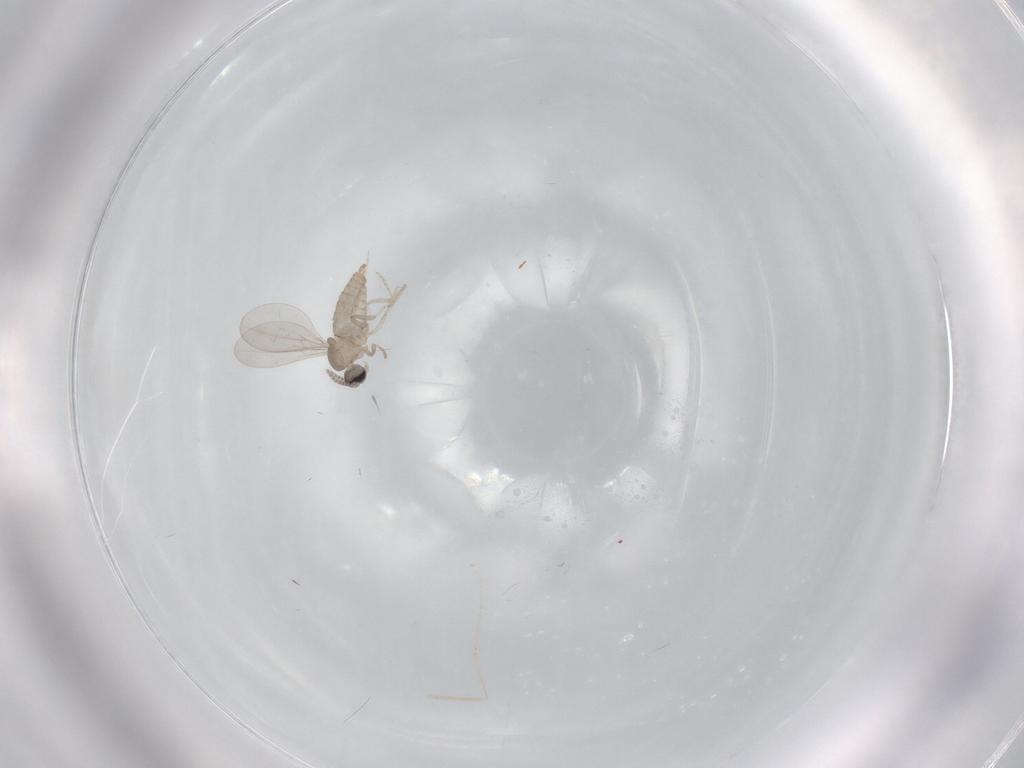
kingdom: Animalia
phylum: Arthropoda
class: Insecta
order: Diptera
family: Cecidomyiidae
